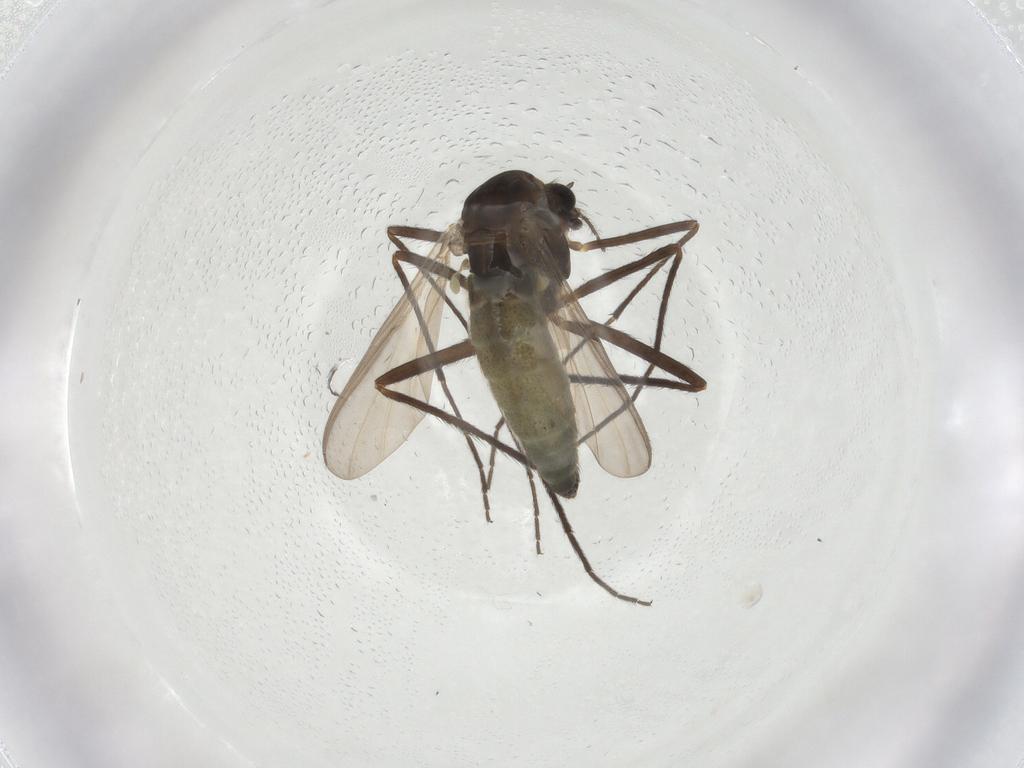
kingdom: Animalia
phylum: Arthropoda
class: Insecta
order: Diptera
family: Chironomidae
